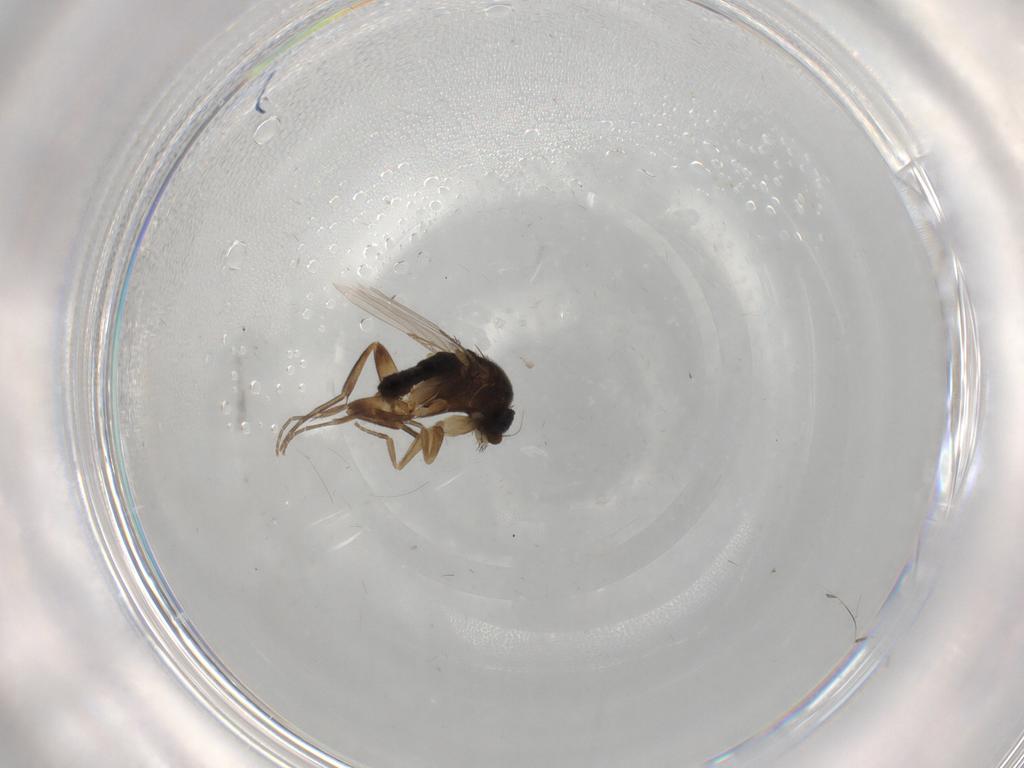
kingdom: Animalia
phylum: Arthropoda
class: Insecta
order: Diptera
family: Phoridae
